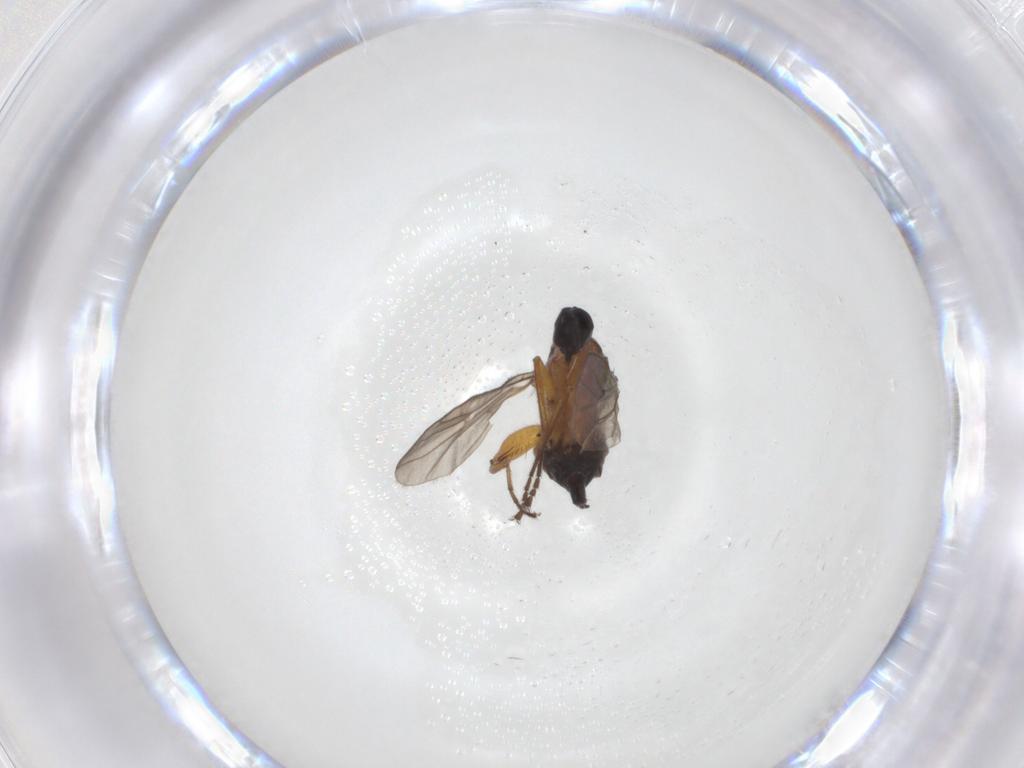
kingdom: Animalia
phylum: Arthropoda
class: Insecta
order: Diptera
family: Hybotidae
